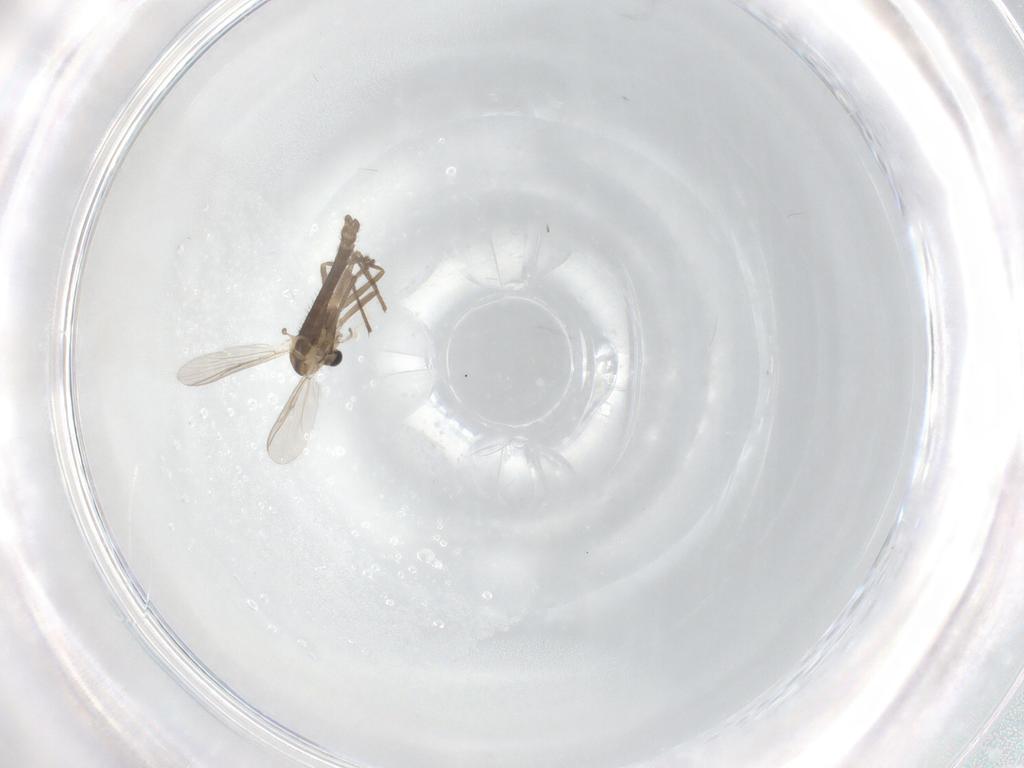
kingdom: Animalia
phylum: Arthropoda
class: Insecta
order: Diptera
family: Chironomidae
